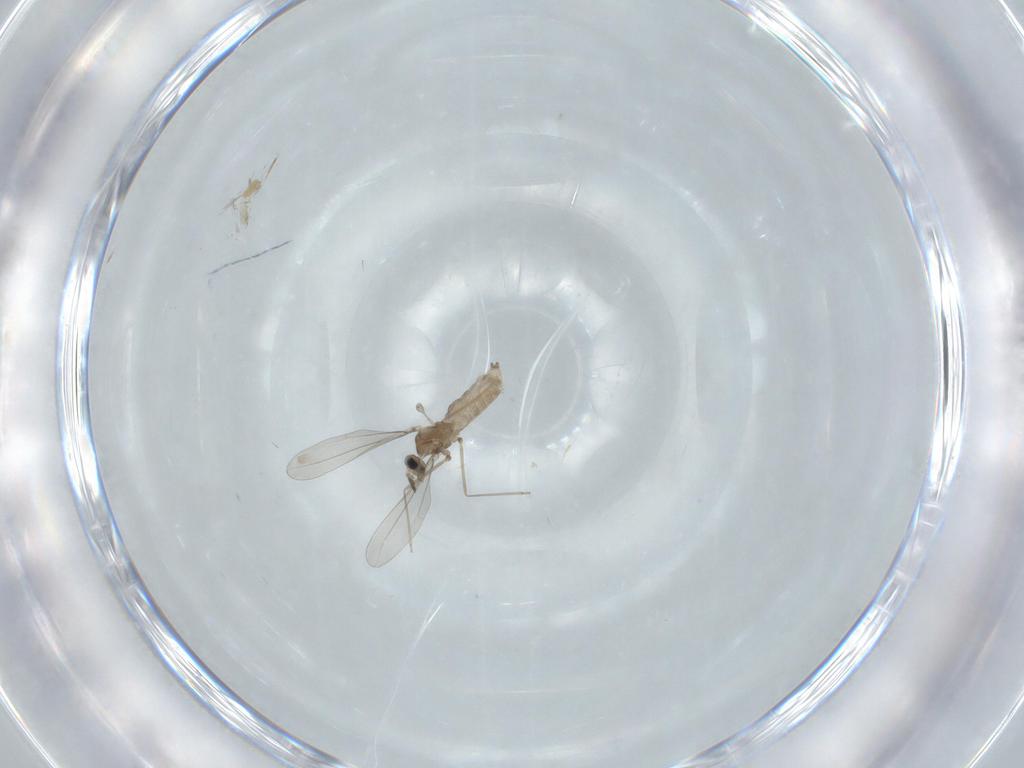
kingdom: Animalia
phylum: Arthropoda
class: Insecta
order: Diptera
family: Cecidomyiidae
